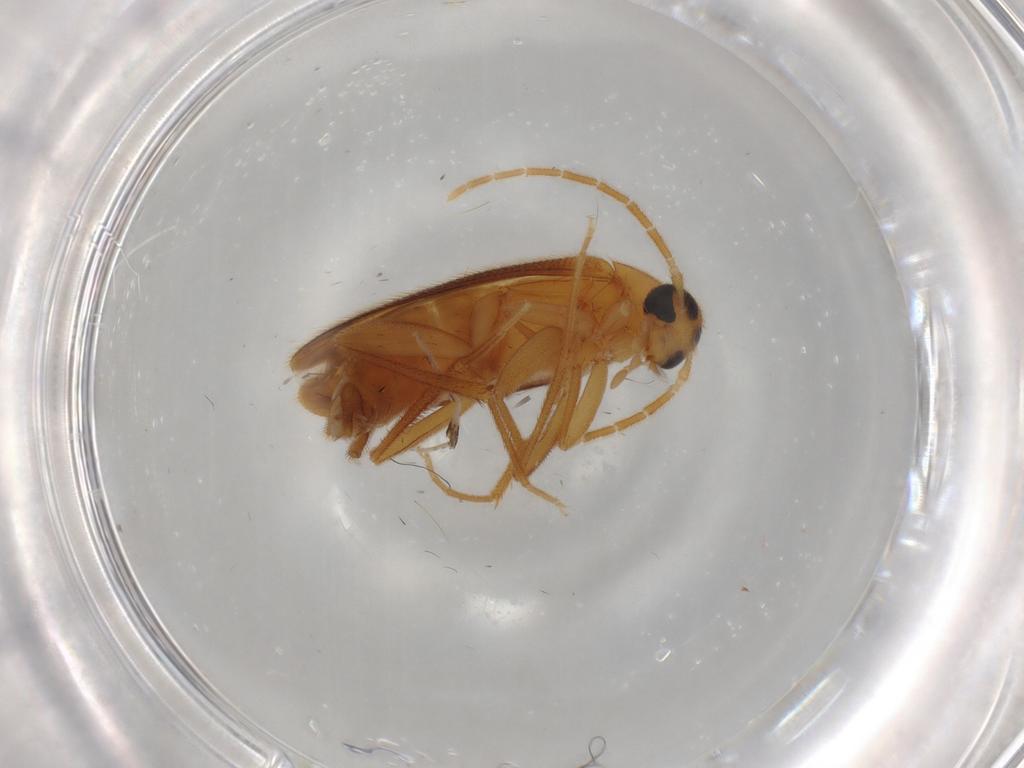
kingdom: Animalia
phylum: Arthropoda
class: Insecta
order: Coleoptera
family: Scraptiidae
